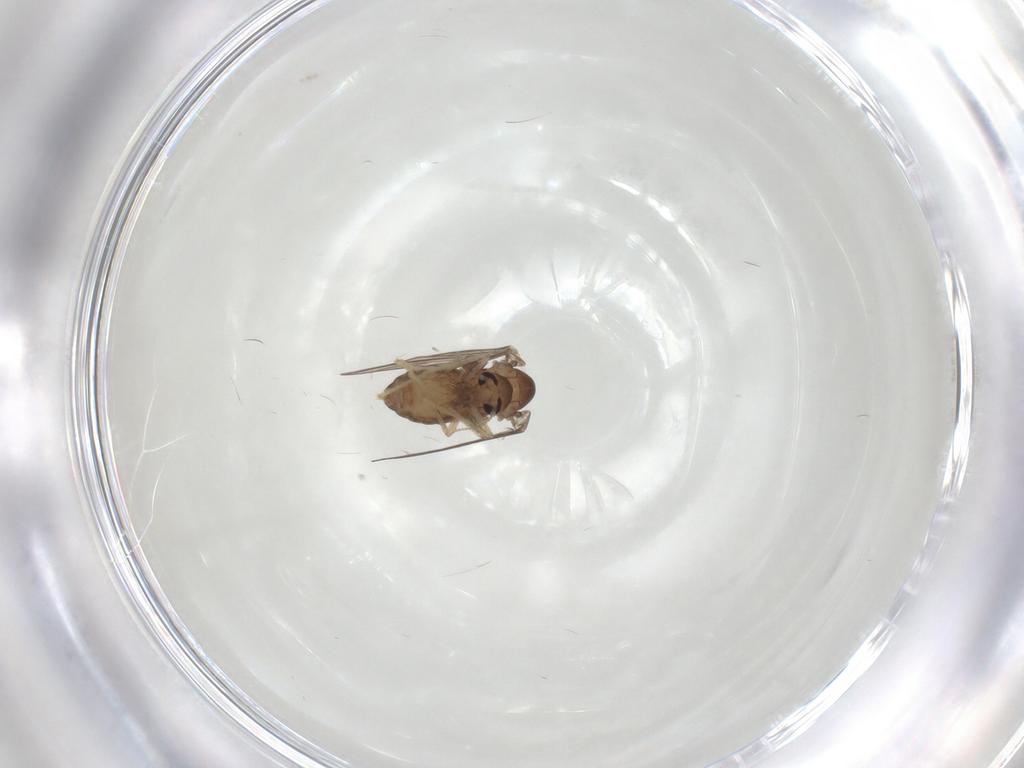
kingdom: Animalia
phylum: Arthropoda
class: Insecta
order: Diptera
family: Psychodidae
